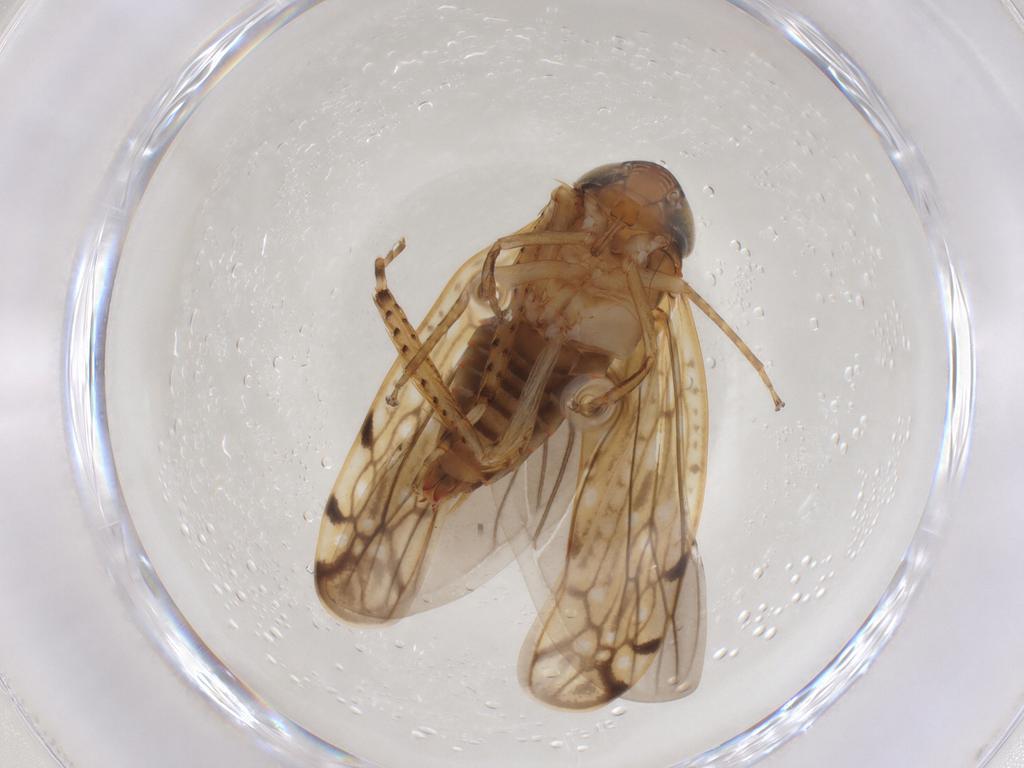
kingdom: Animalia
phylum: Arthropoda
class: Insecta
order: Hemiptera
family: Cicadellidae
